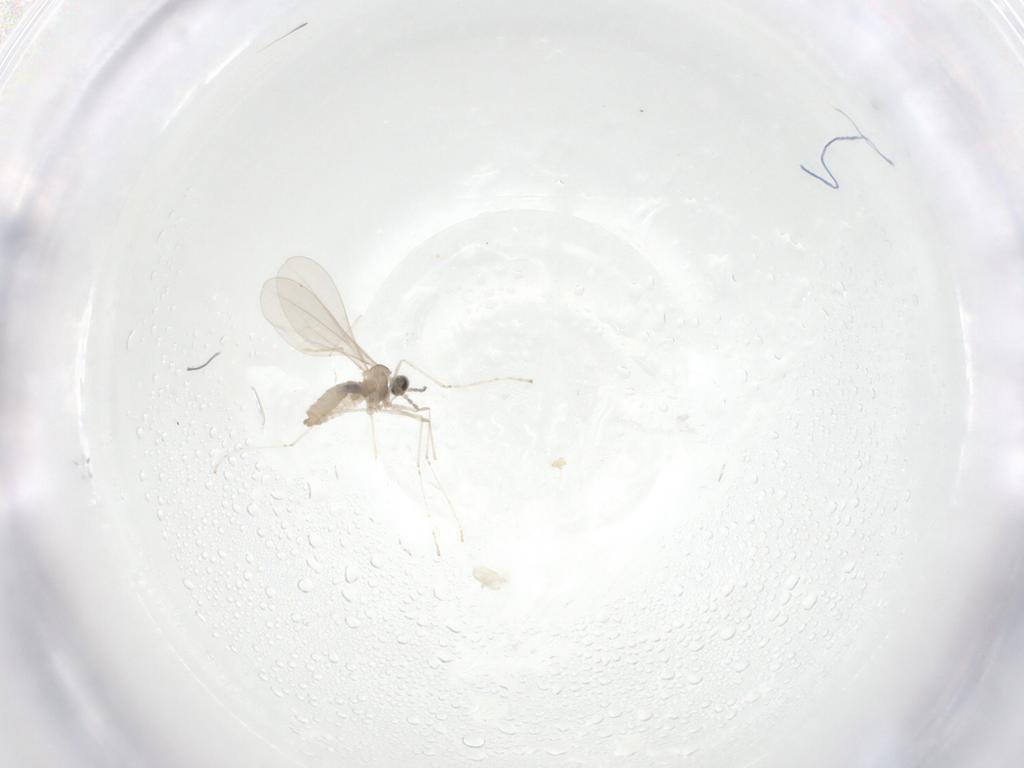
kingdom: Animalia
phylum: Arthropoda
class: Insecta
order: Diptera
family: Cecidomyiidae
